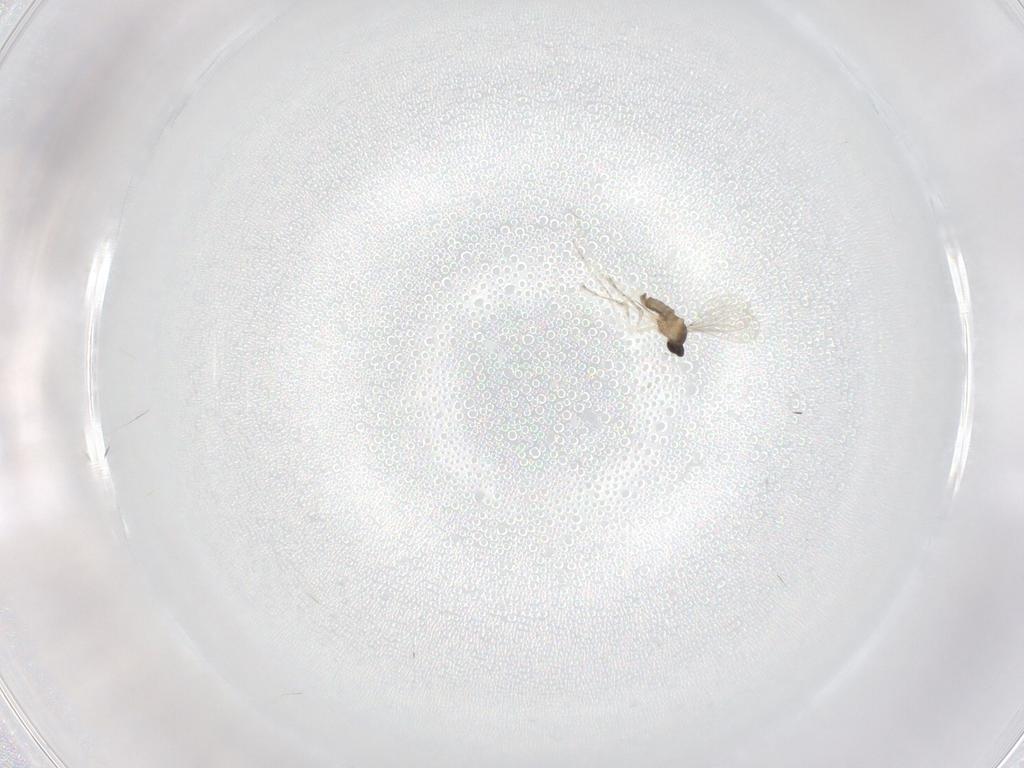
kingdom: Animalia
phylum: Arthropoda
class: Insecta
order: Diptera
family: Cecidomyiidae
